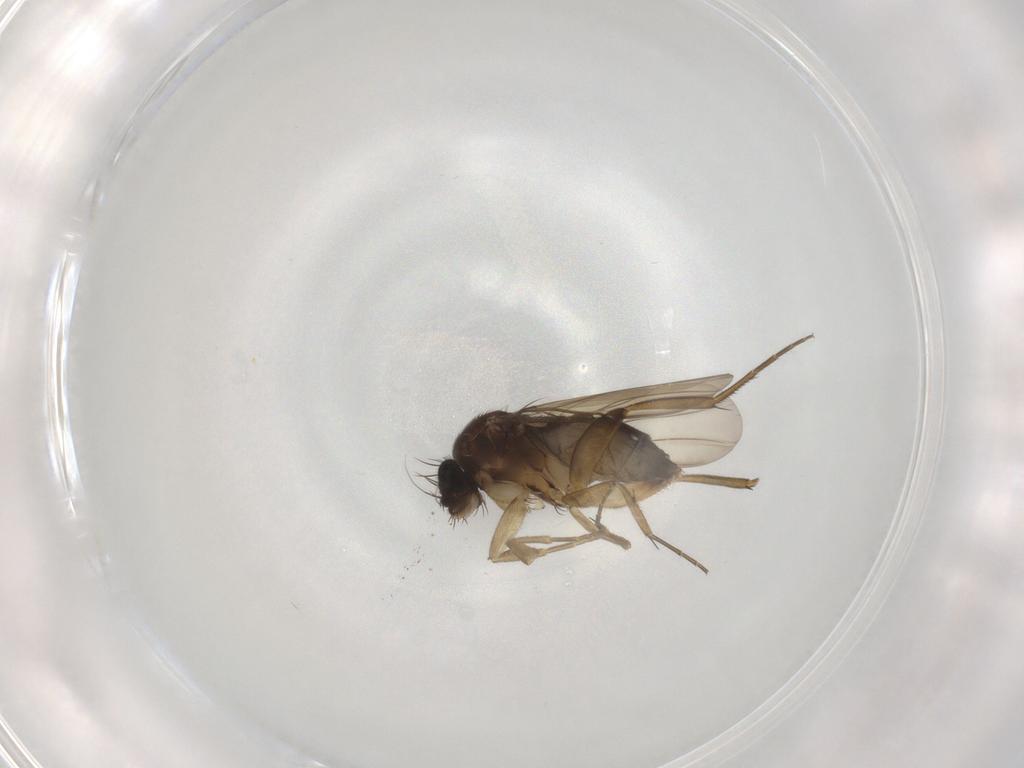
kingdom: Animalia
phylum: Arthropoda
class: Insecta
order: Diptera
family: Phoridae
